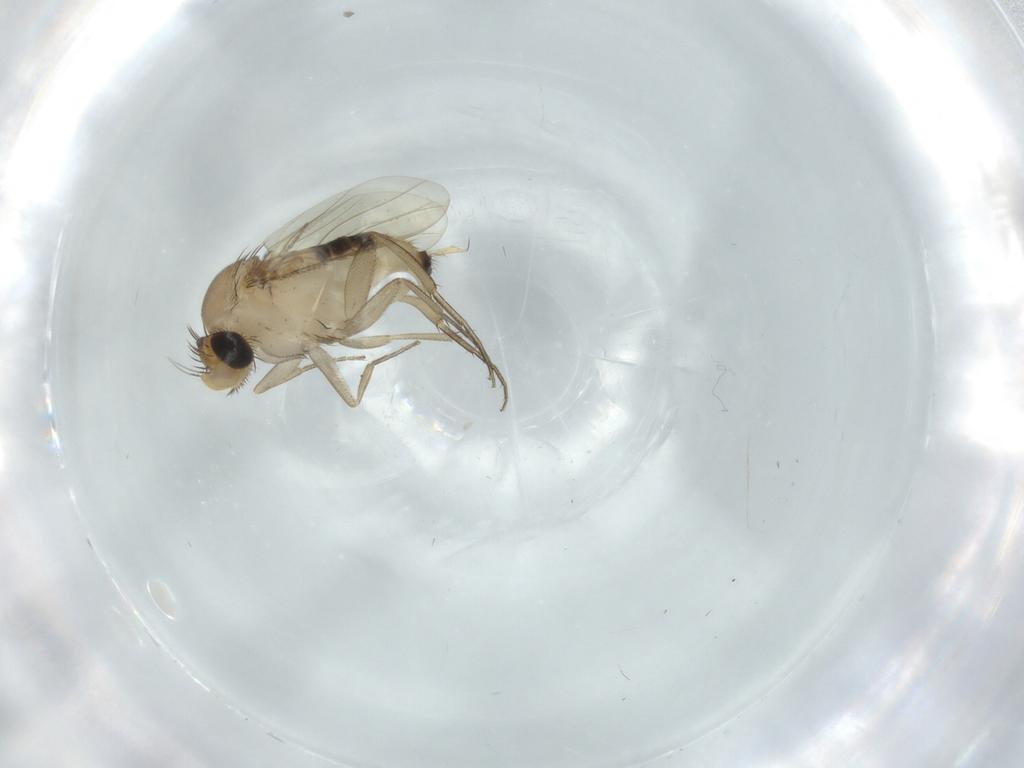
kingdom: Animalia
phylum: Arthropoda
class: Insecta
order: Diptera
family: Phoridae
